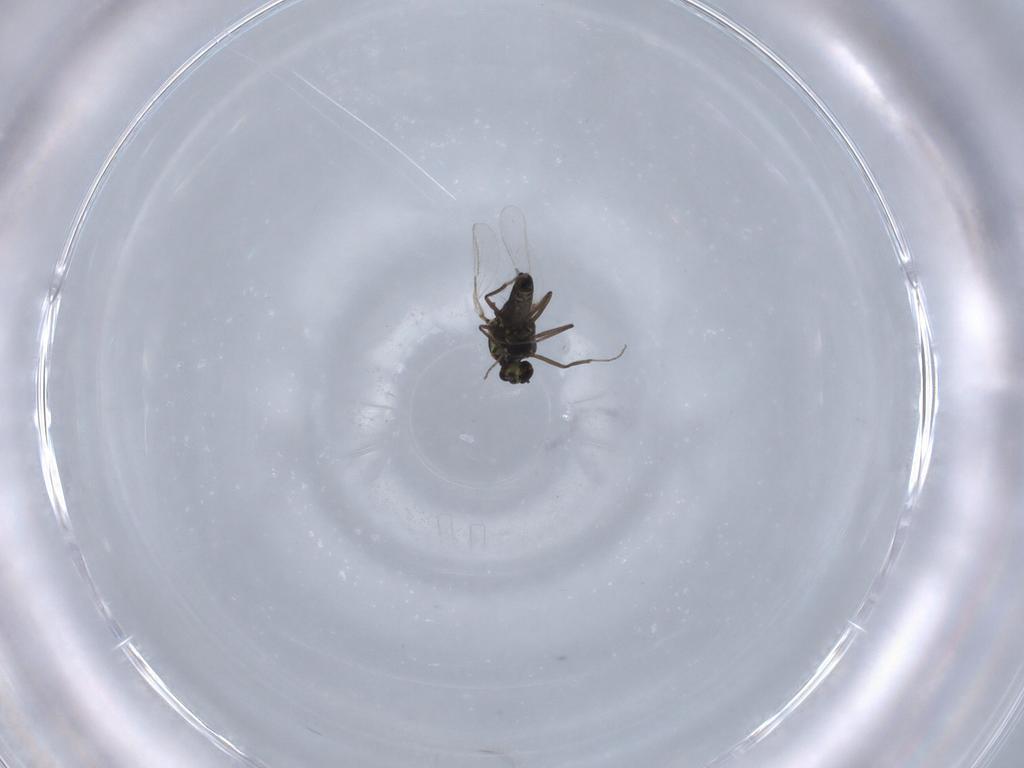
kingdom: Animalia
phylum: Arthropoda
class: Insecta
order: Diptera
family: Ceratopogonidae
